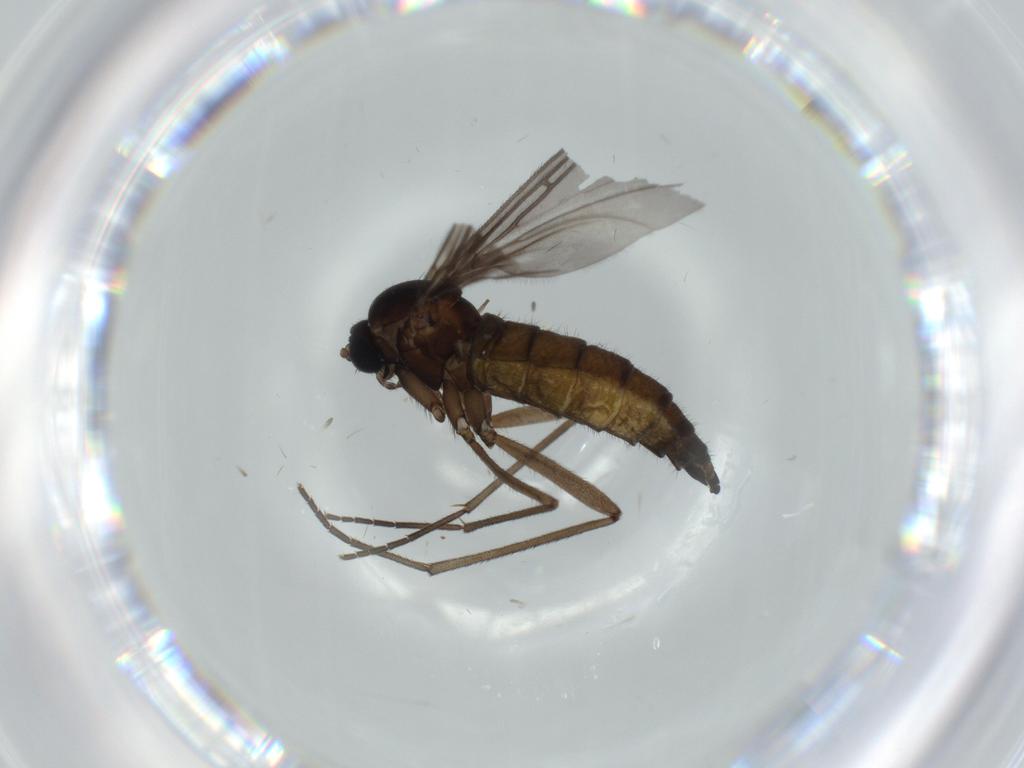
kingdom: Animalia
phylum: Arthropoda
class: Insecta
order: Diptera
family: Sciaridae
